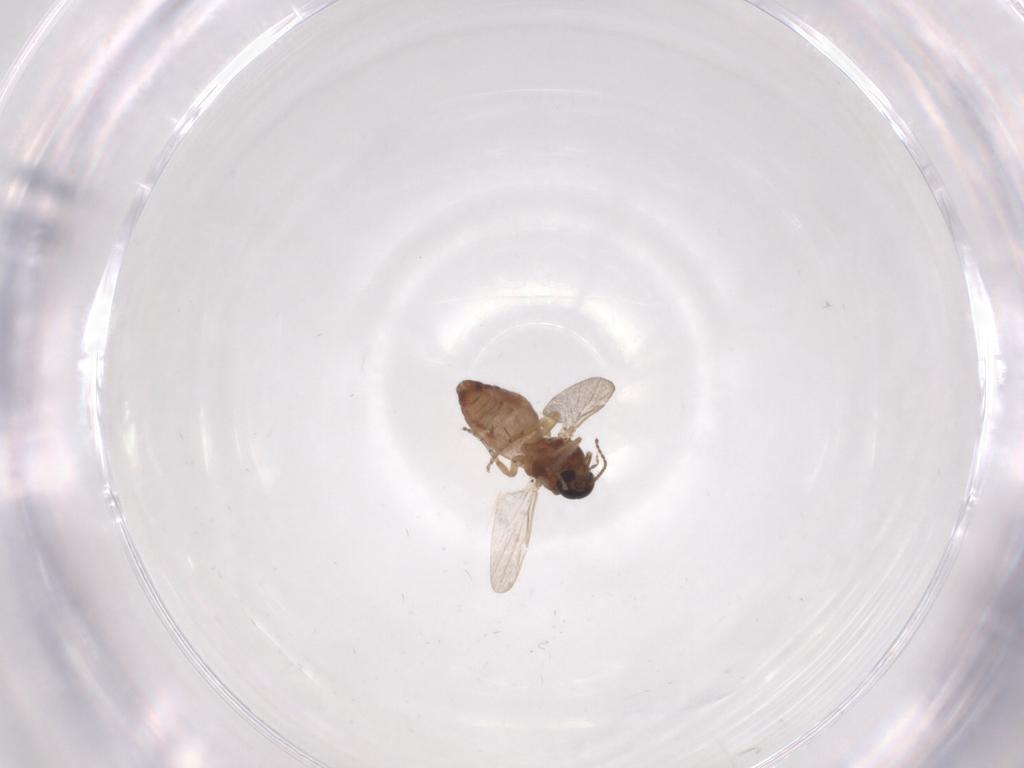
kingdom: Animalia
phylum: Arthropoda
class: Insecta
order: Diptera
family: Ceratopogonidae
